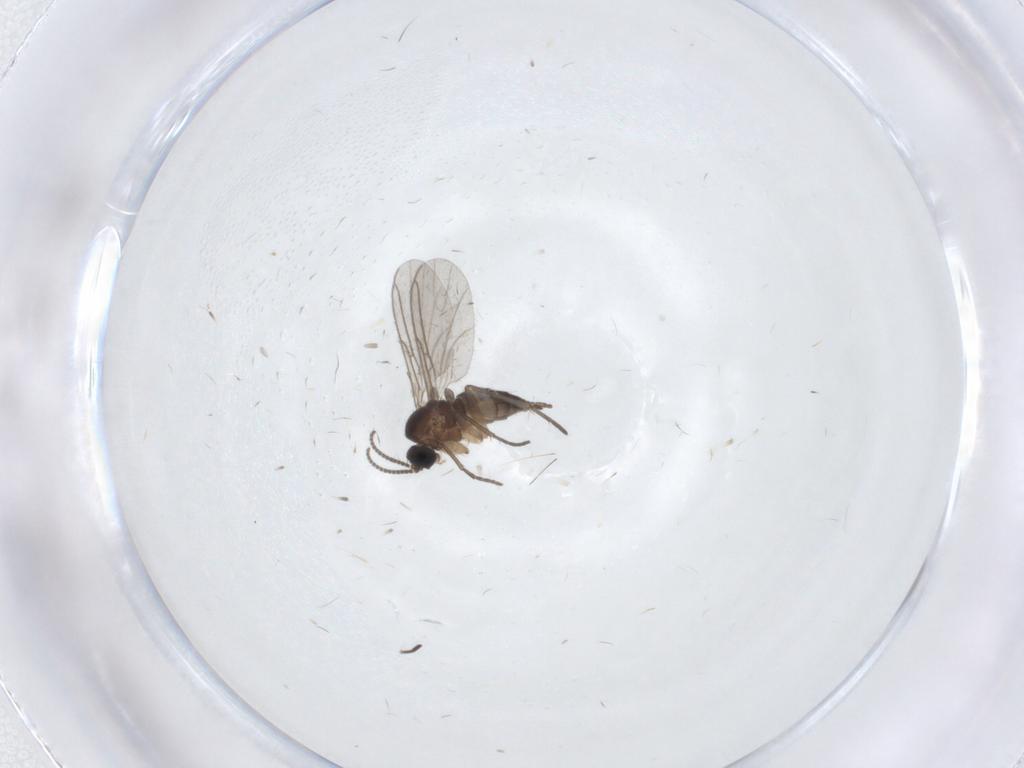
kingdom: Animalia
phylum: Arthropoda
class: Insecta
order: Diptera
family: Sciaridae
